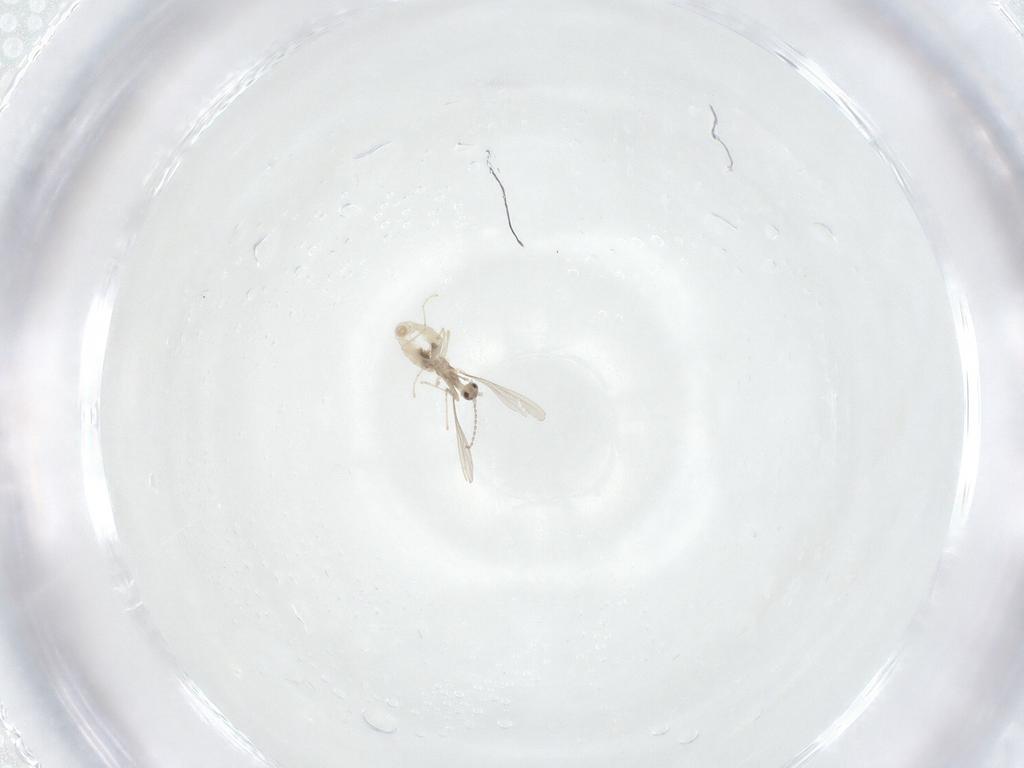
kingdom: Animalia
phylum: Arthropoda
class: Insecta
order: Diptera
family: Cecidomyiidae
